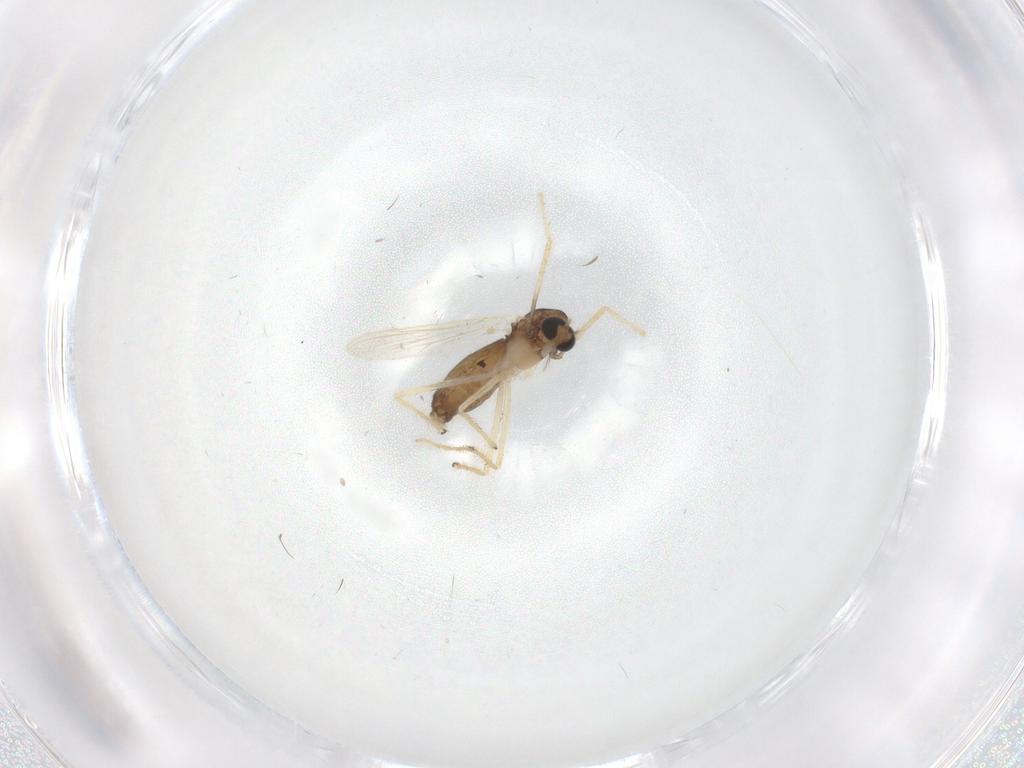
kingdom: Animalia
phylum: Arthropoda
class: Insecta
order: Diptera
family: Chironomidae
